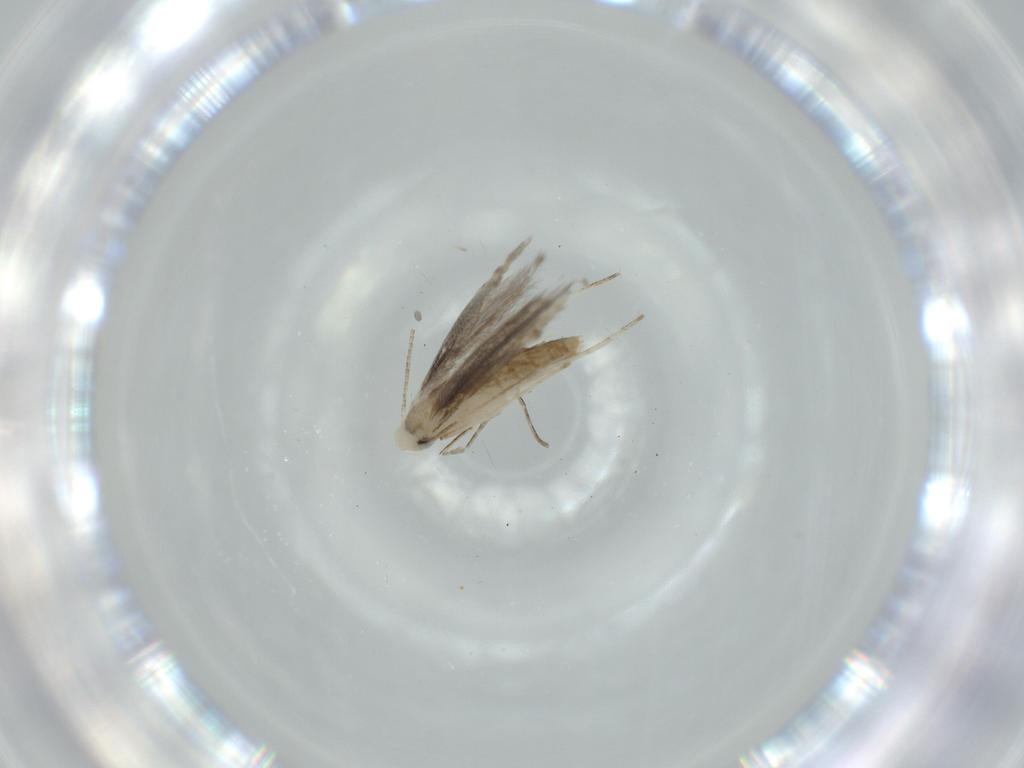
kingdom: Animalia
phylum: Arthropoda
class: Insecta
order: Lepidoptera
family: Gracillariidae
